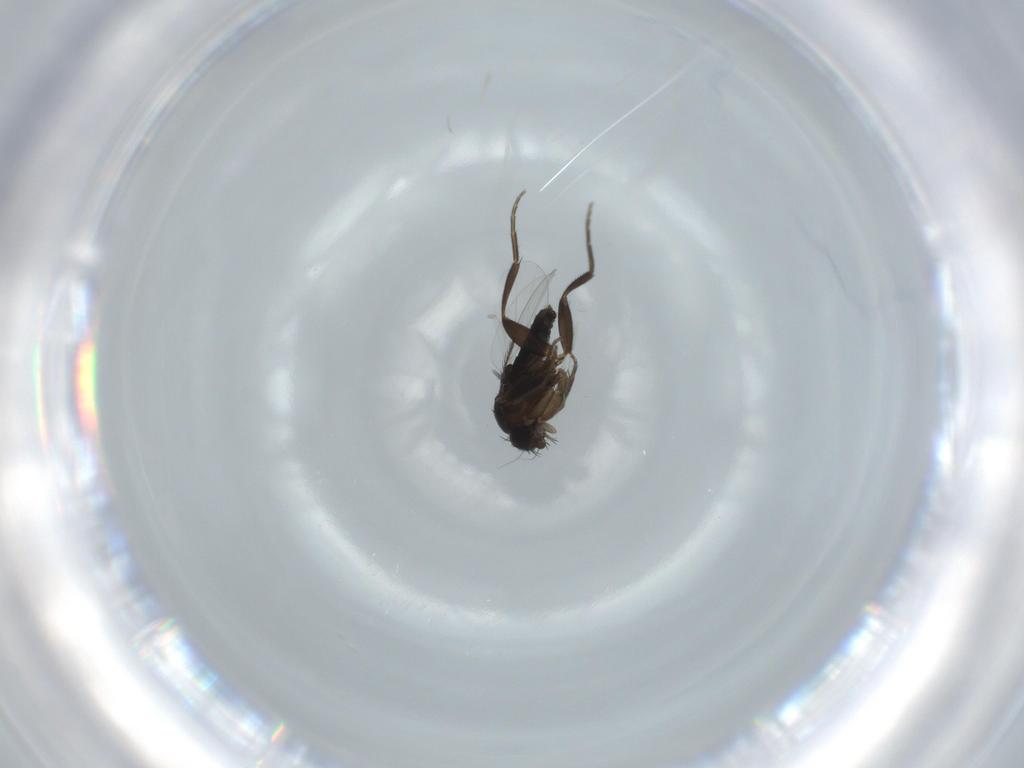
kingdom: Animalia
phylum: Arthropoda
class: Insecta
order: Diptera
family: Phoridae
